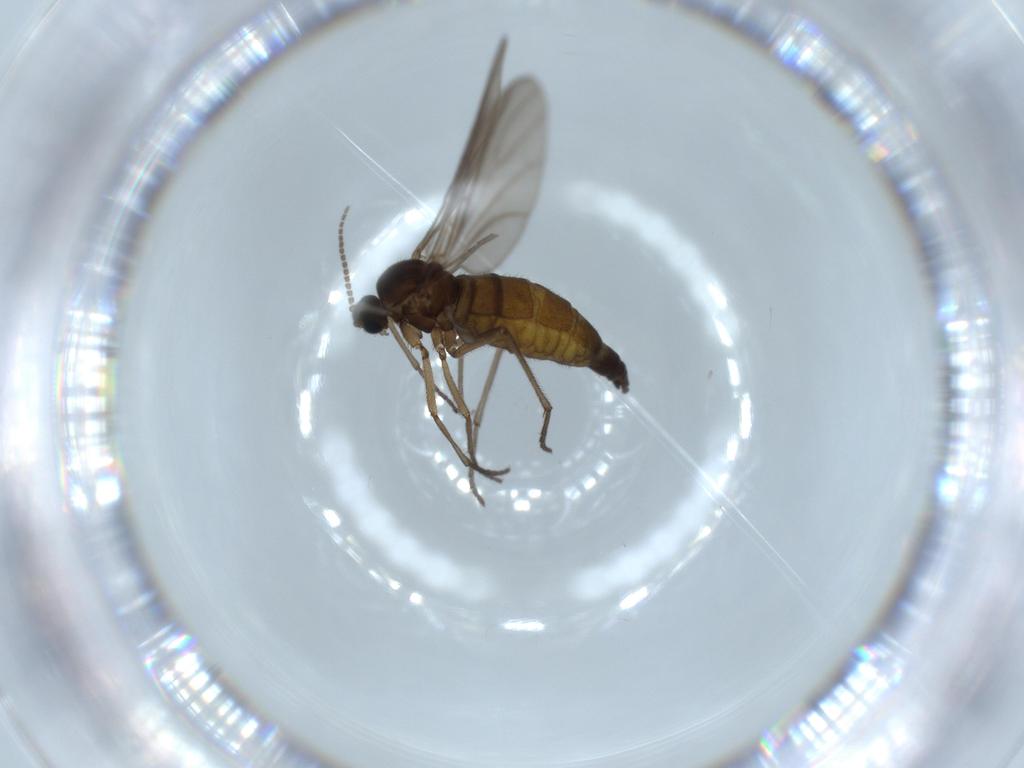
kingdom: Animalia
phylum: Arthropoda
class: Insecta
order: Diptera
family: Sciaridae
